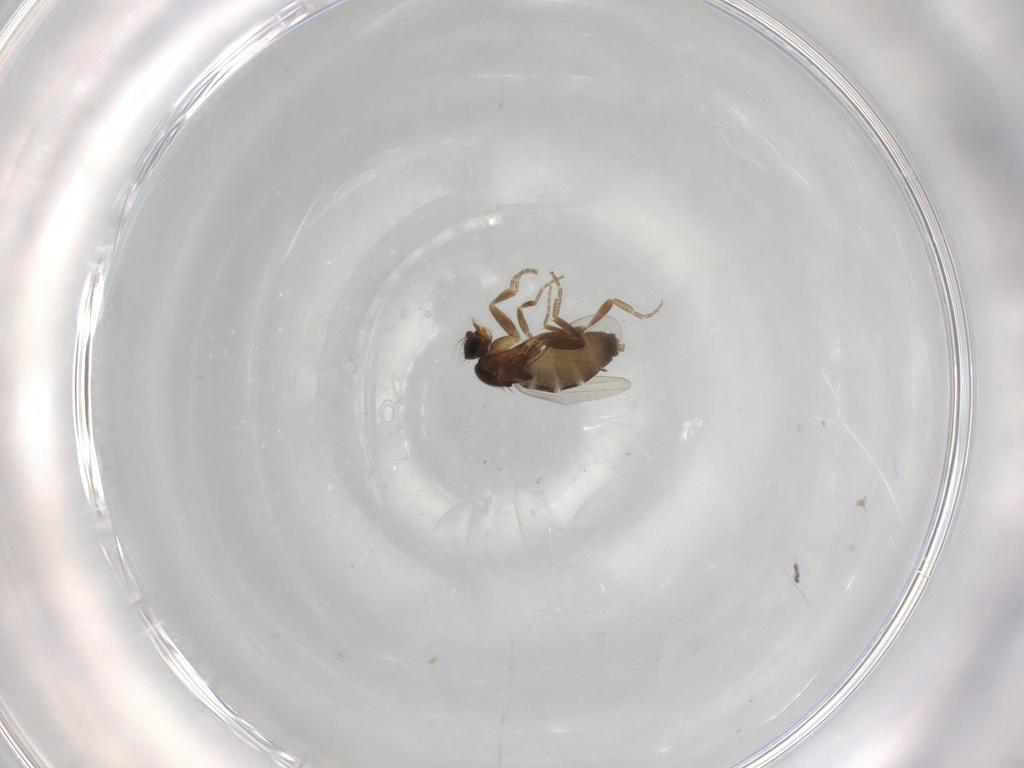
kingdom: Animalia
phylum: Arthropoda
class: Insecta
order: Diptera
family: Phoridae
